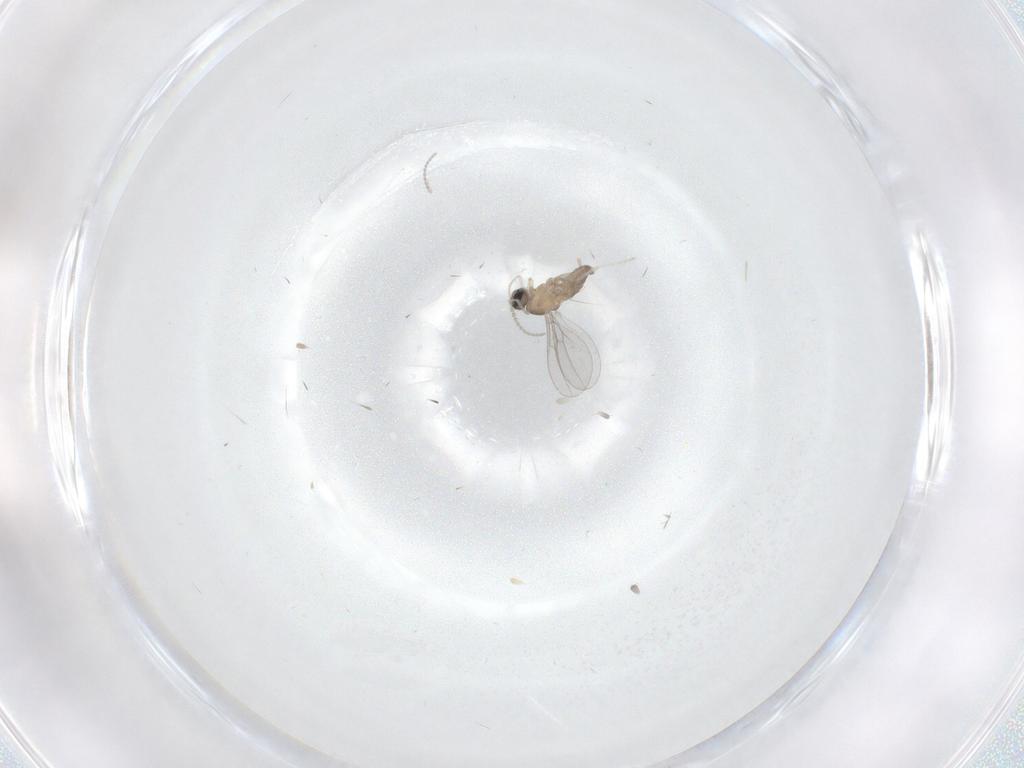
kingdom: Animalia
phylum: Arthropoda
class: Insecta
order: Diptera
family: Cecidomyiidae
